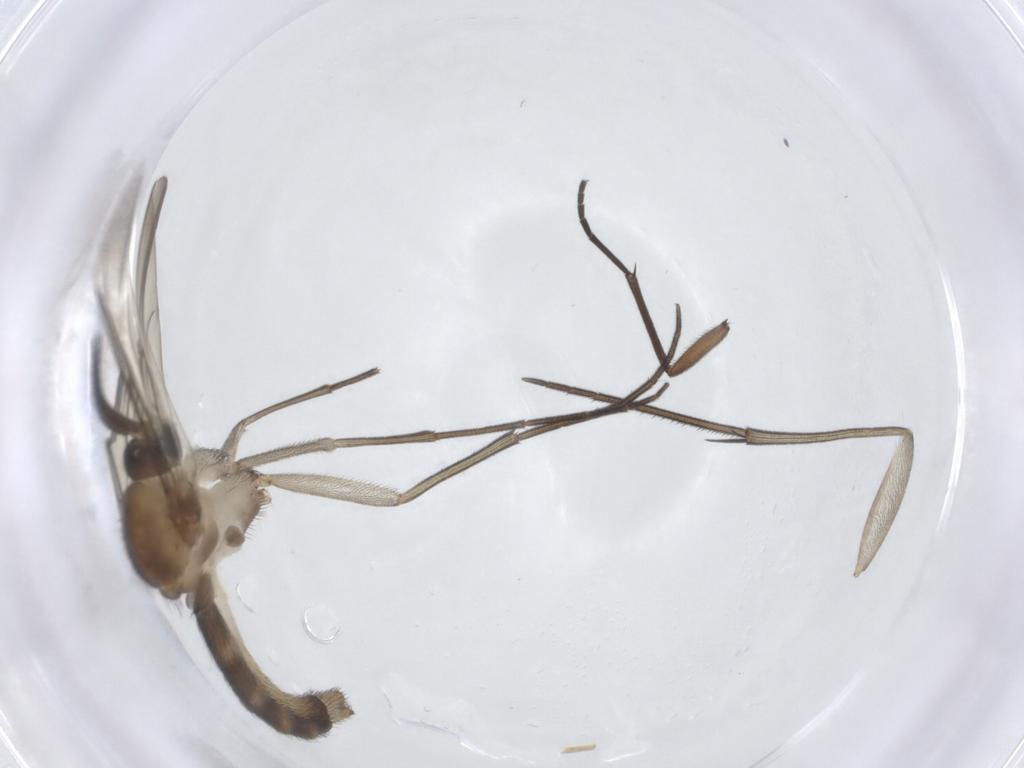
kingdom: Animalia
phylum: Arthropoda
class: Insecta
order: Diptera
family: Mycetophilidae
